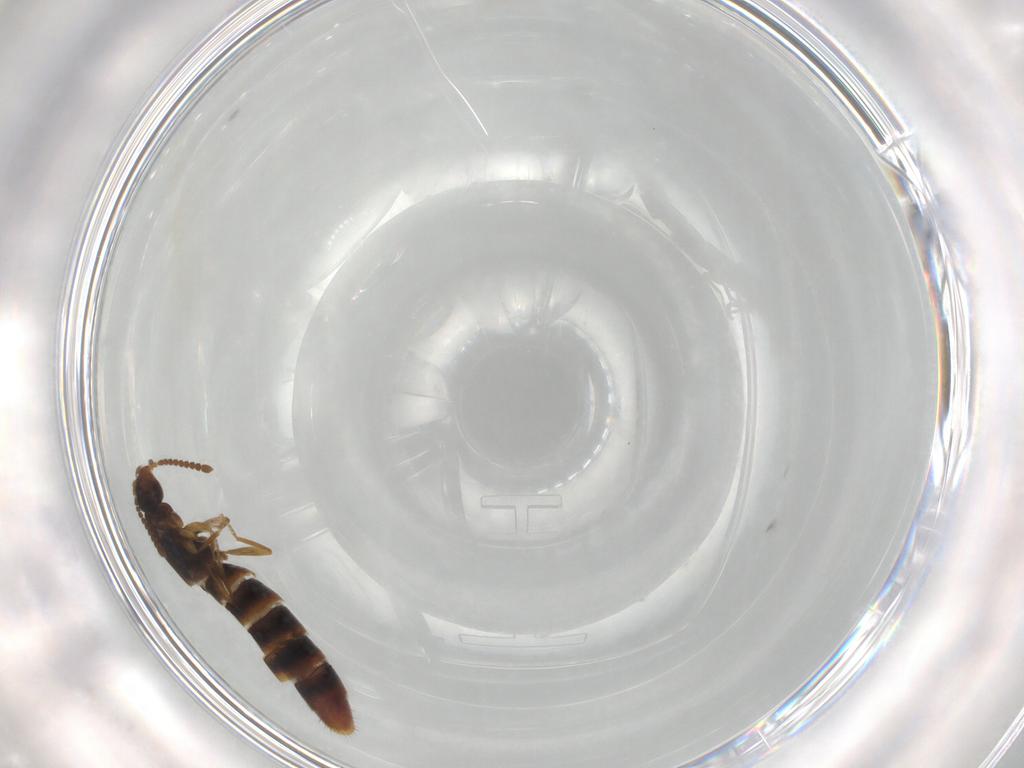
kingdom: Animalia
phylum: Arthropoda
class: Insecta
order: Coleoptera
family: Staphylinidae
